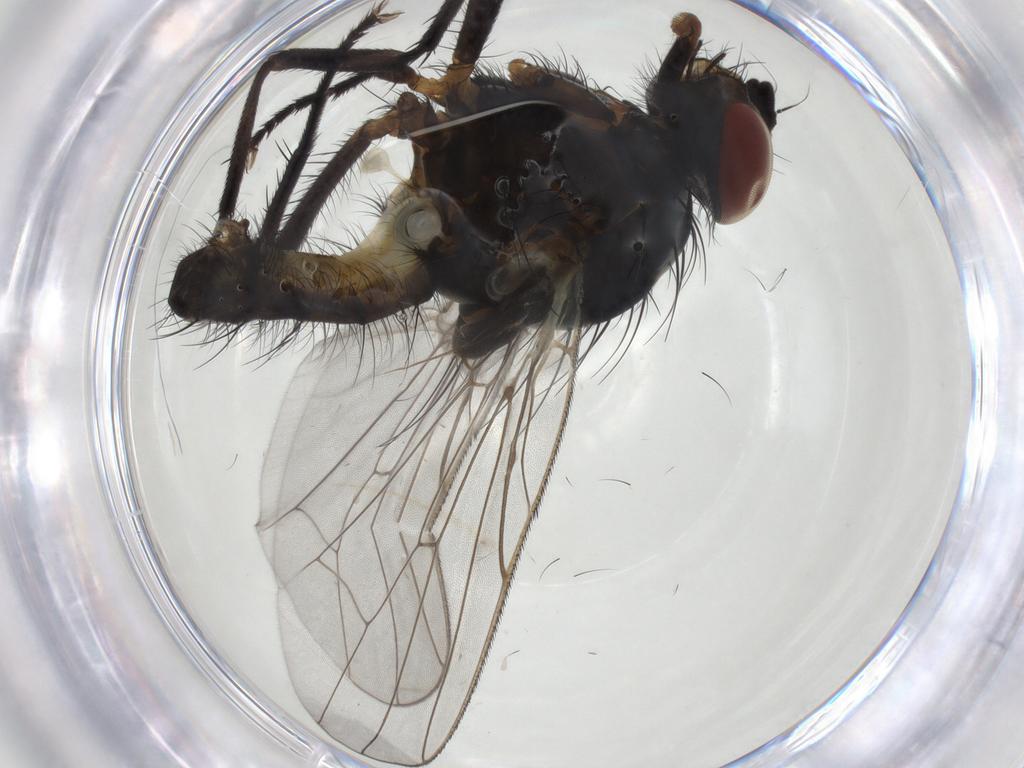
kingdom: Animalia
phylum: Arthropoda
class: Insecta
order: Diptera
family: Anthomyiidae
